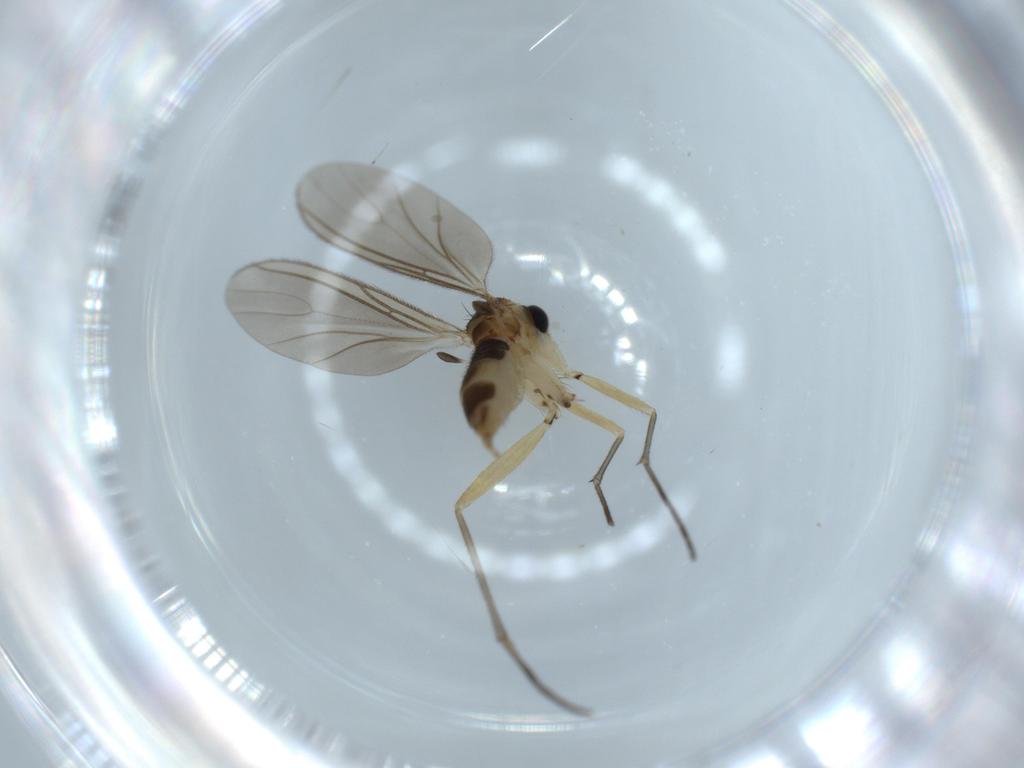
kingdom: Animalia
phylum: Arthropoda
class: Insecta
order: Diptera
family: Sciaridae
